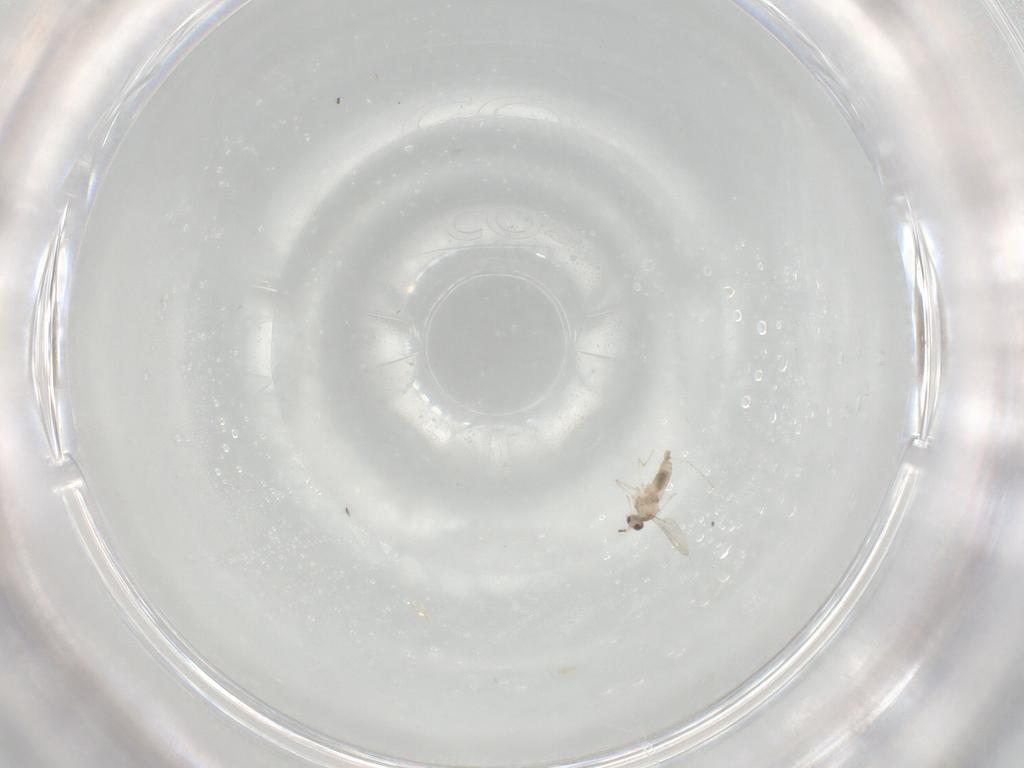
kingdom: Animalia
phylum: Arthropoda
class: Insecta
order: Diptera
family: Cecidomyiidae
